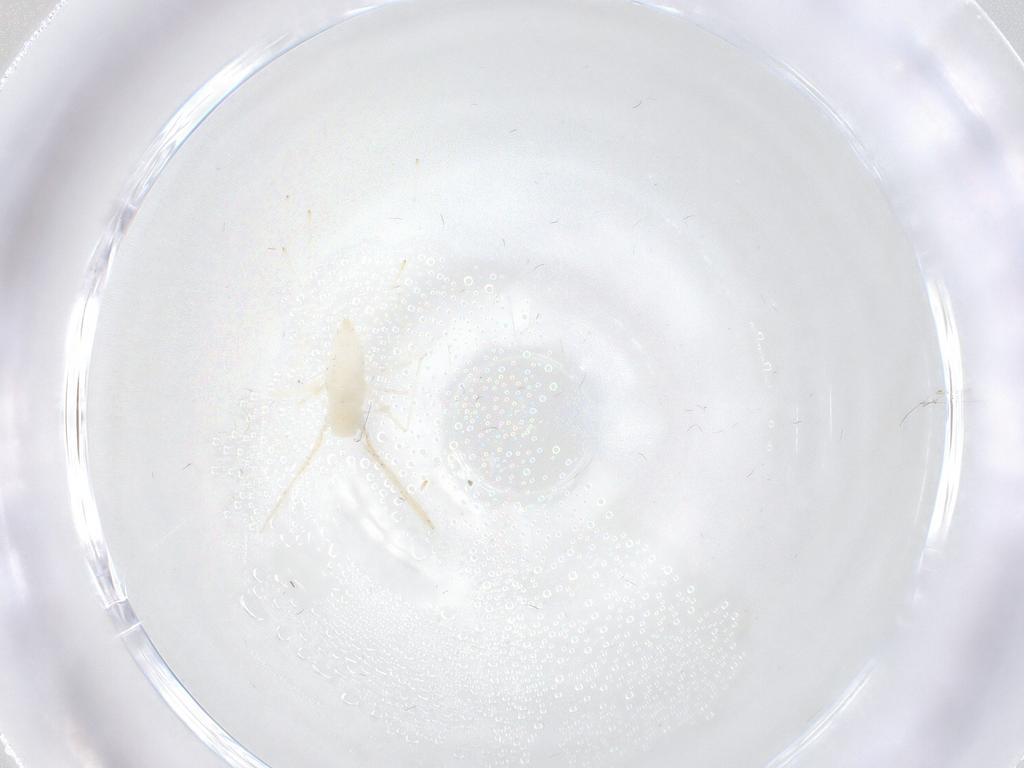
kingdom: Animalia
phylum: Arthropoda
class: Insecta
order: Diptera
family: Cecidomyiidae
